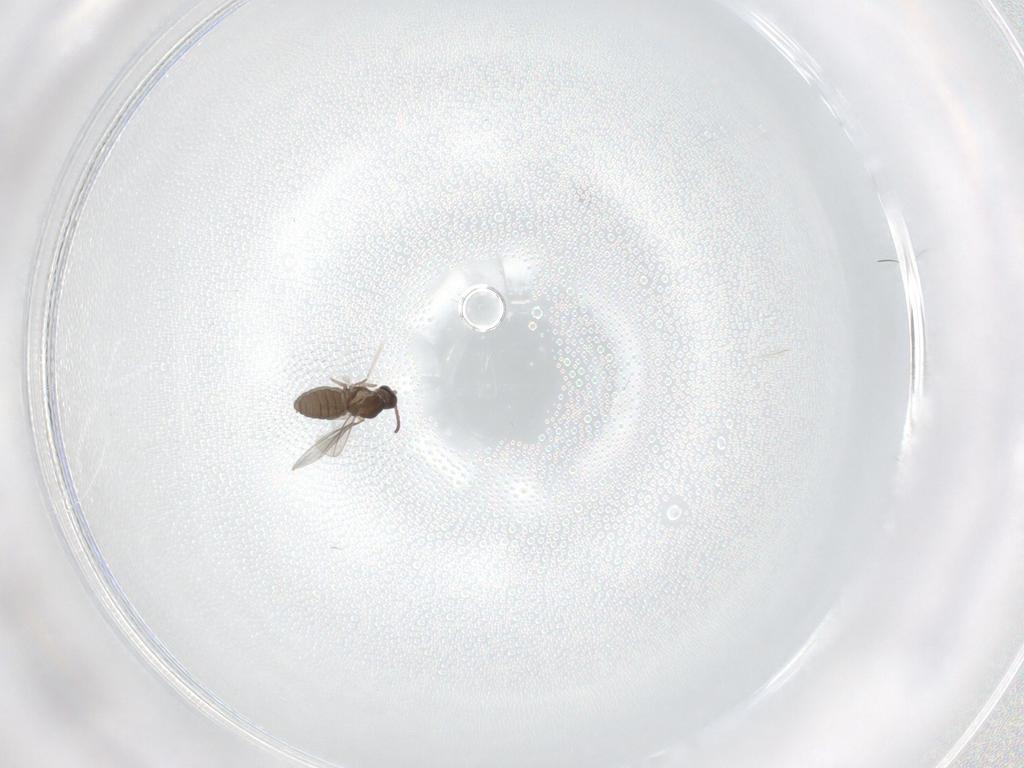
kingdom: Animalia
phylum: Arthropoda
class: Insecta
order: Diptera
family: Cecidomyiidae
